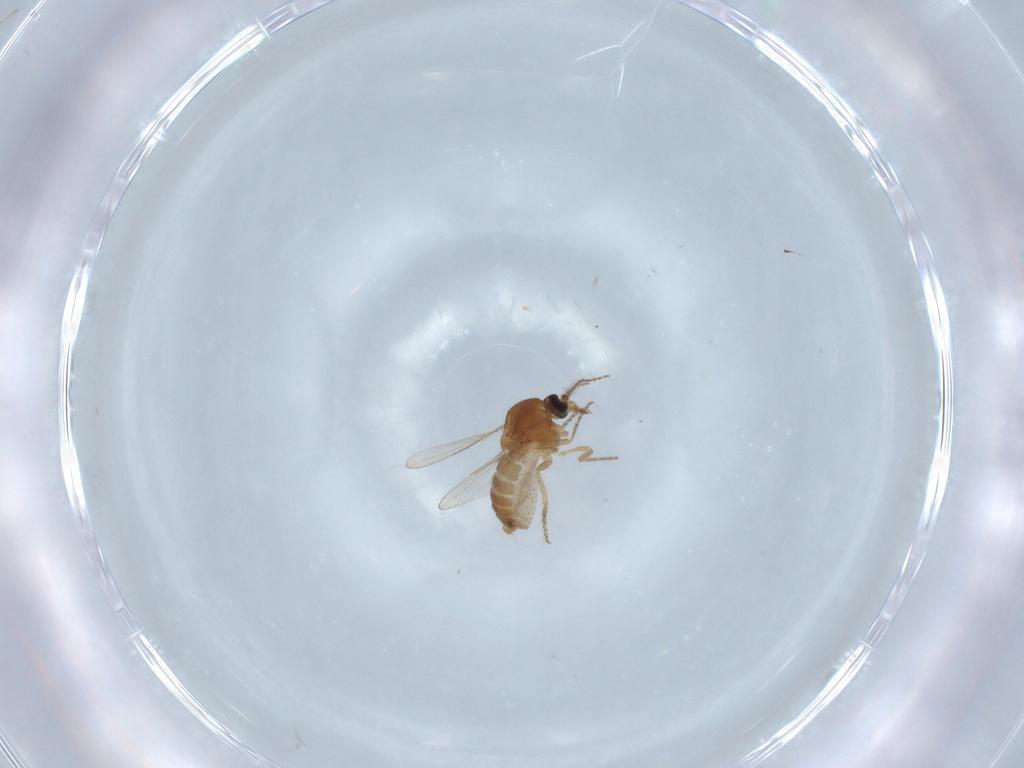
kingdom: Animalia
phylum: Arthropoda
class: Insecta
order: Diptera
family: Ceratopogonidae
